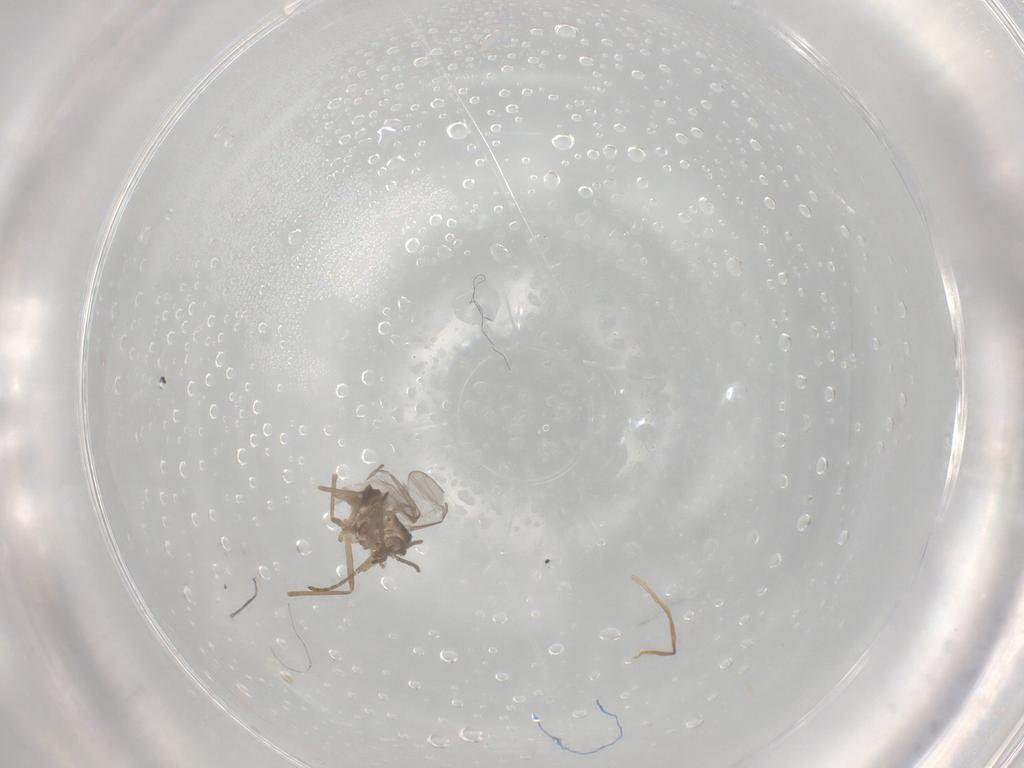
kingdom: Animalia
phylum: Arthropoda
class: Insecta
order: Diptera
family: Cecidomyiidae
